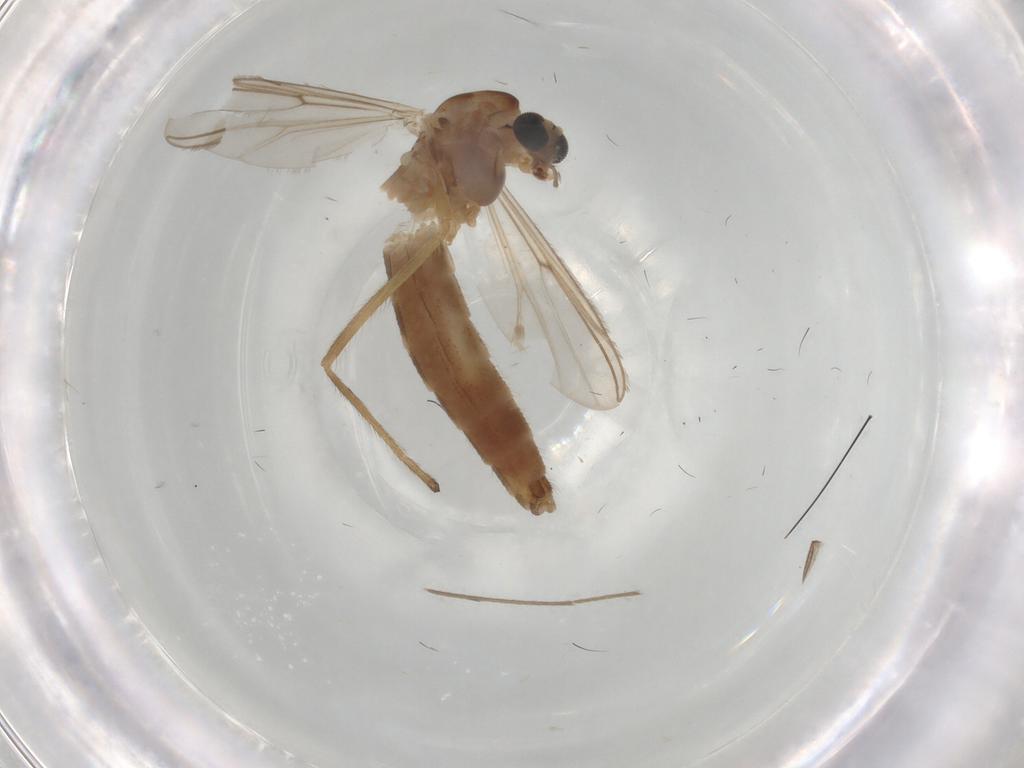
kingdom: Animalia
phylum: Arthropoda
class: Insecta
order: Diptera
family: Chironomidae
